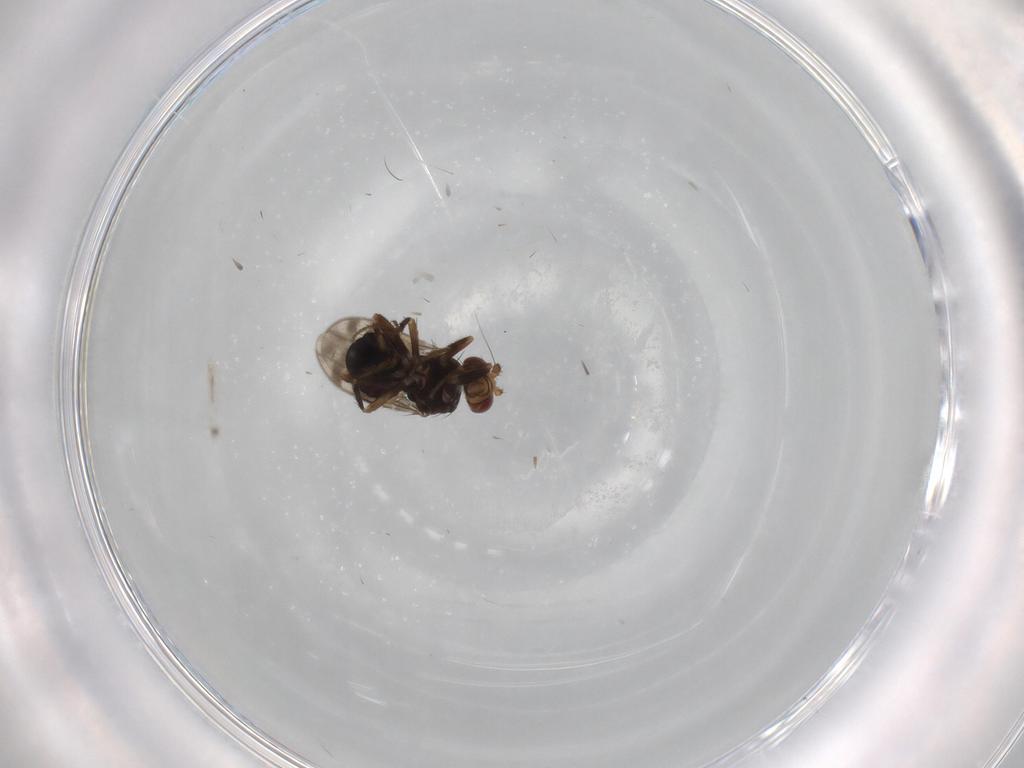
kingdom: Animalia
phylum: Arthropoda
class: Insecta
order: Diptera
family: Sphaeroceridae
